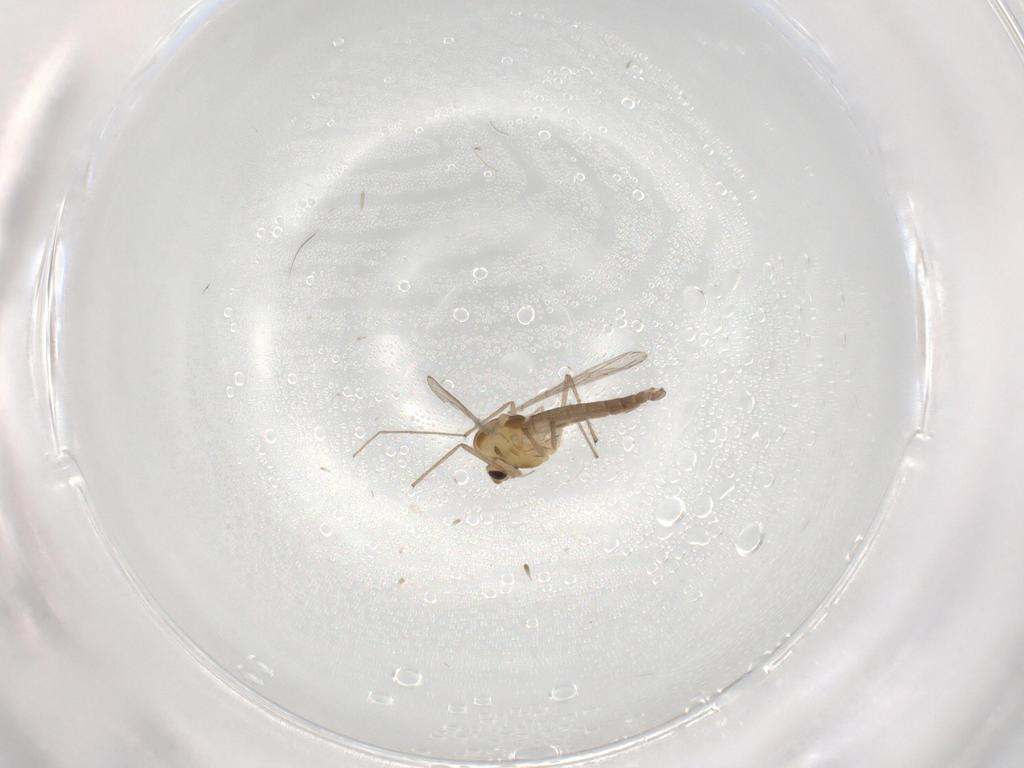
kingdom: Animalia
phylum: Arthropoda
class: Insecta
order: Diptera
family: Chironomidae
